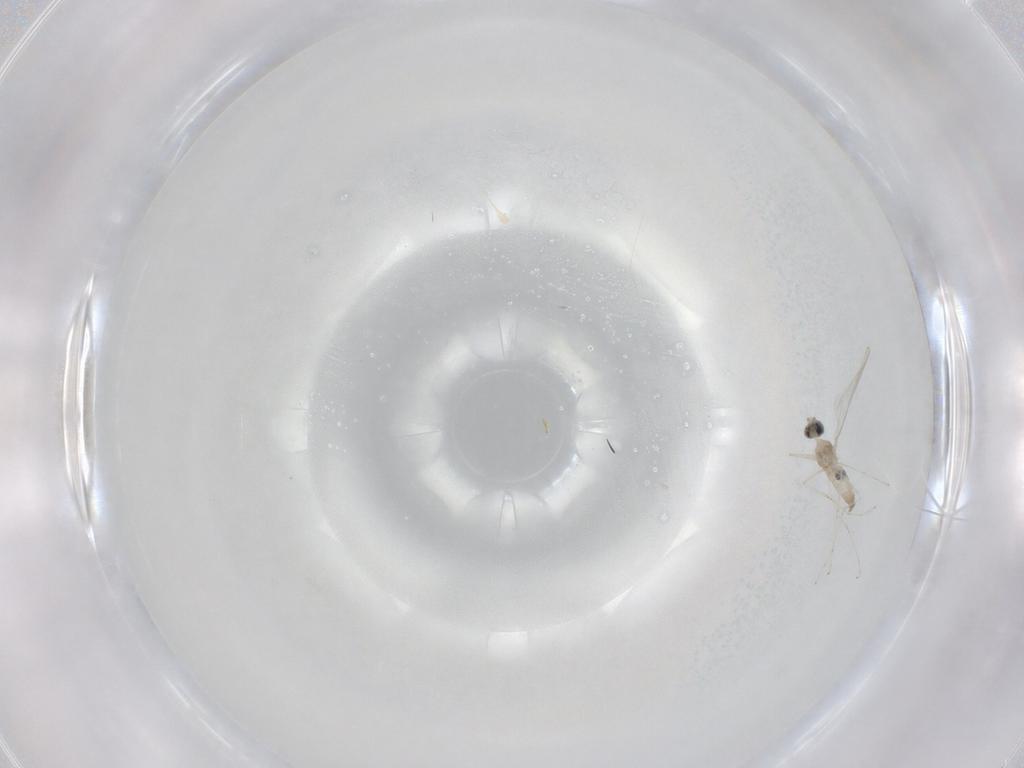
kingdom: Animalia
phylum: Arthropoda
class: Insecta
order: Diptera
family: Cecidomyiidae
